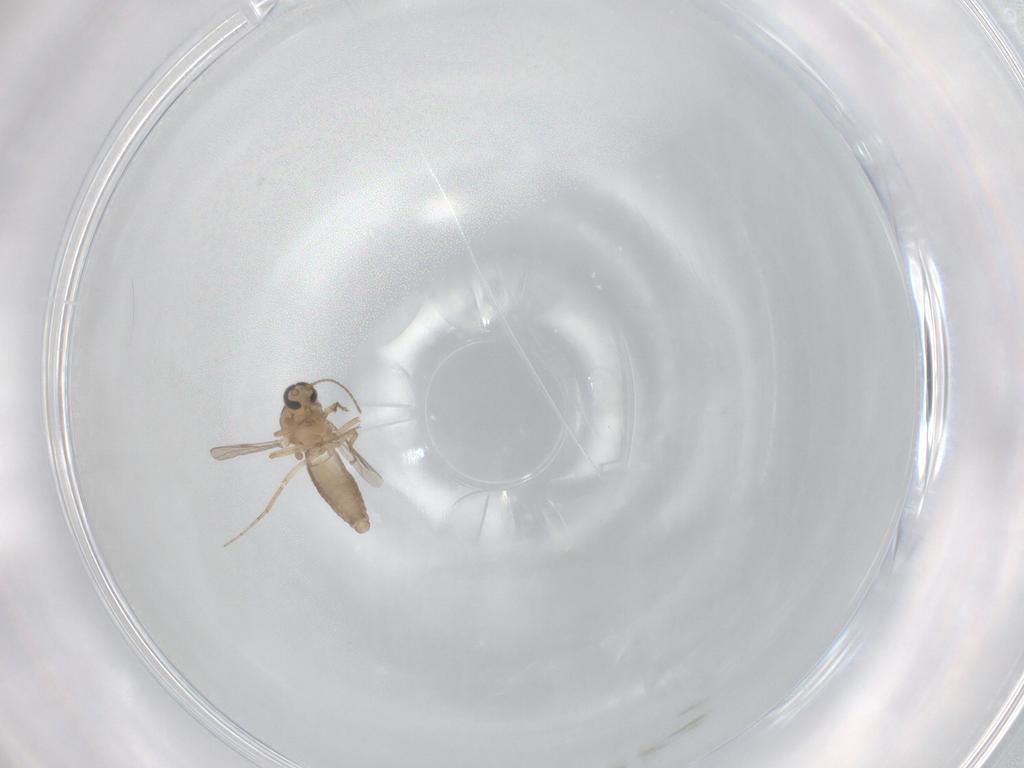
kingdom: Animalia
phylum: Arthropoda
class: Insecta
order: Diptera
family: Ceratopogonidae
